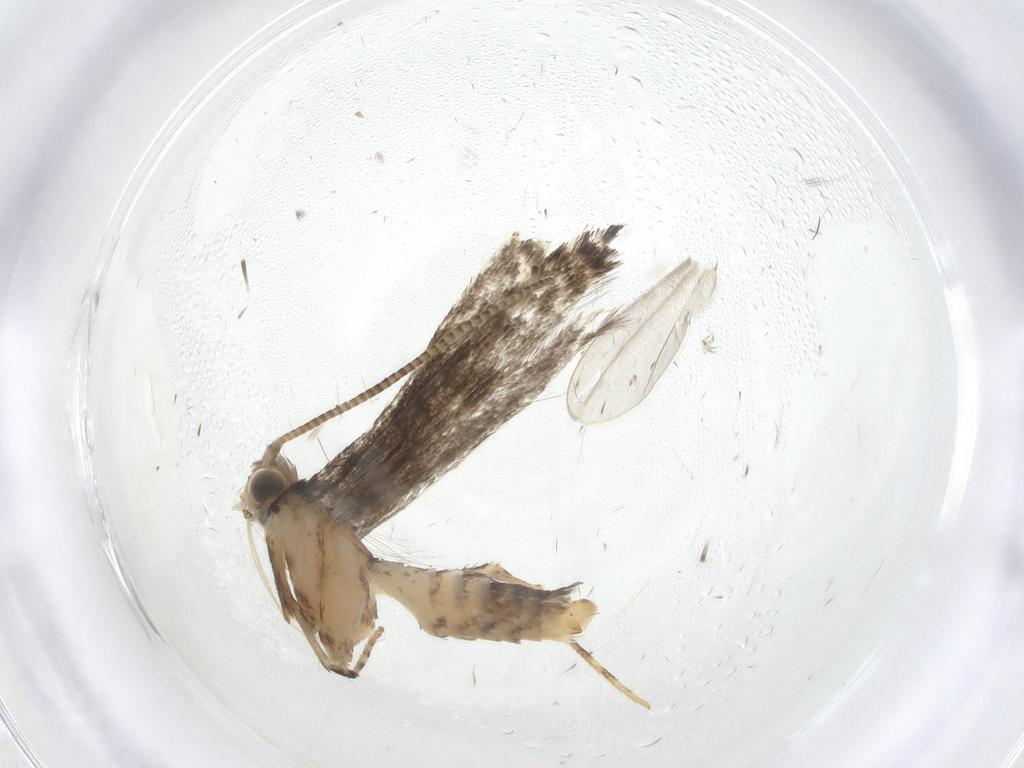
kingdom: Animalia
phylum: Arthropoda
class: Insecta
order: Lepidoptera
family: Gracillariidae
